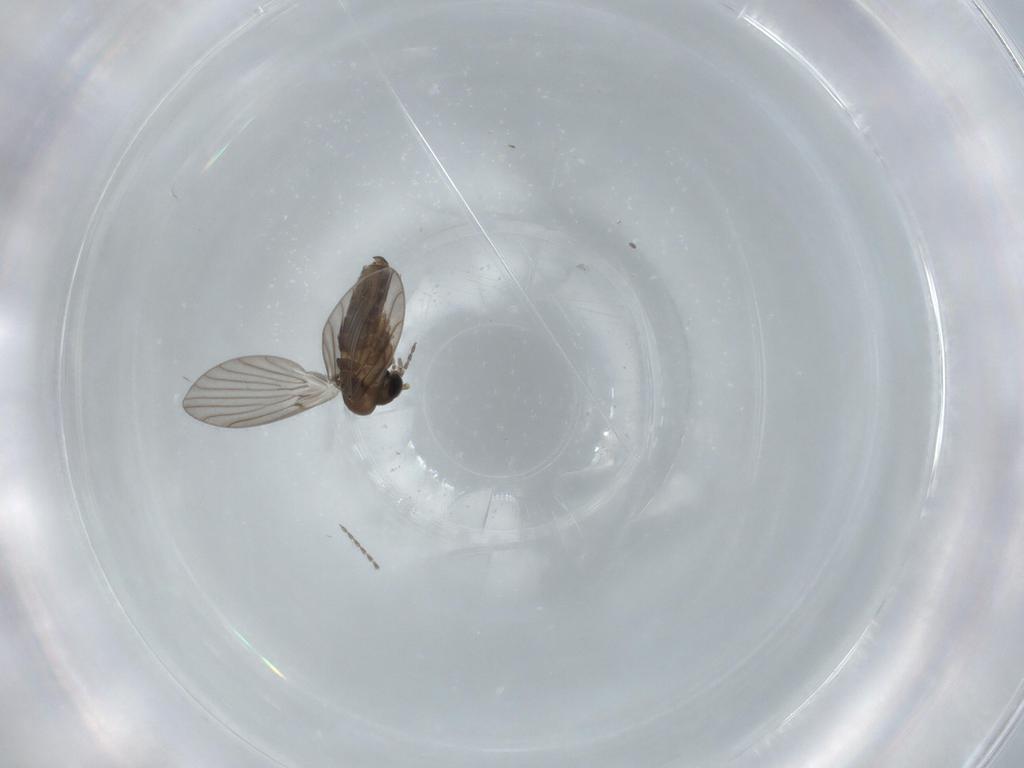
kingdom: Animalia
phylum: Arthropoda
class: Insecta
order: Diptera
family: Psychodidae
